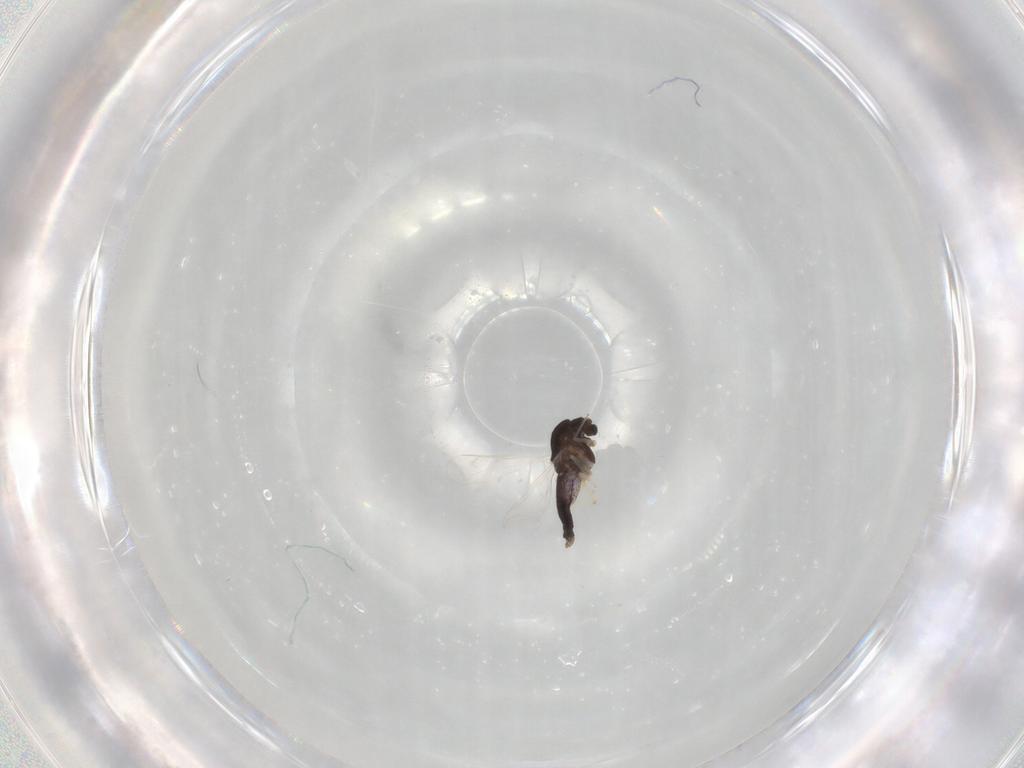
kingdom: Animalia
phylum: Arthropoda
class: Insecta
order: Diptera
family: Chironomidae
